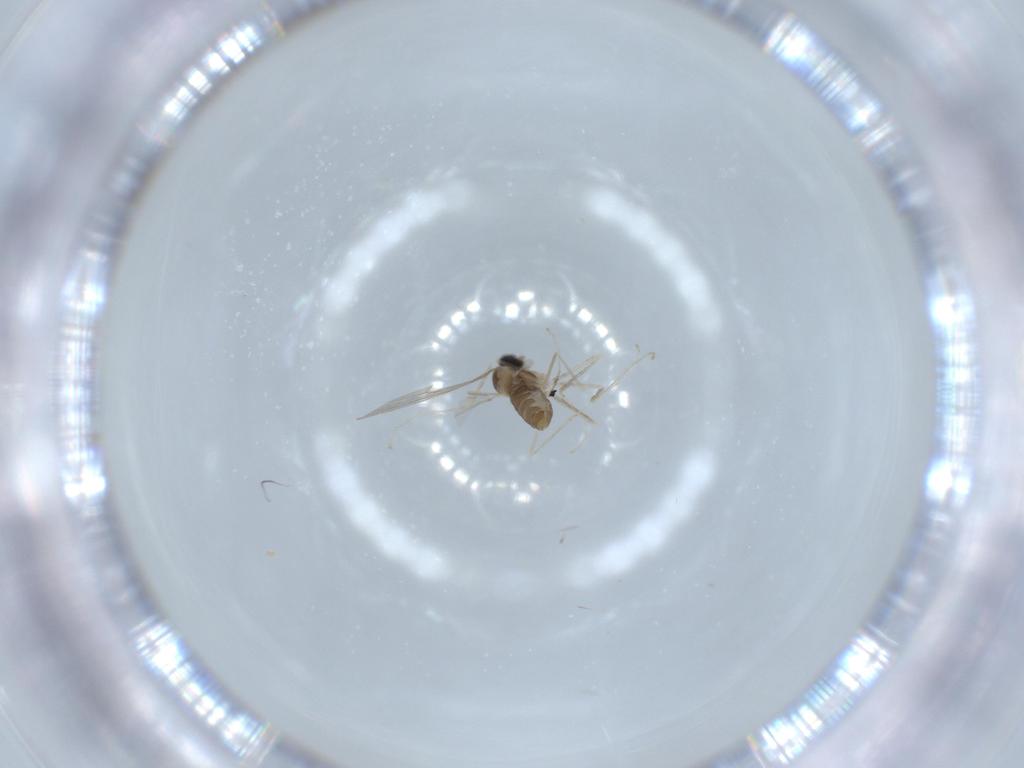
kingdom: Animalia
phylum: Arthropoda
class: Insecta
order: Diptera
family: Cecidomyiidae
